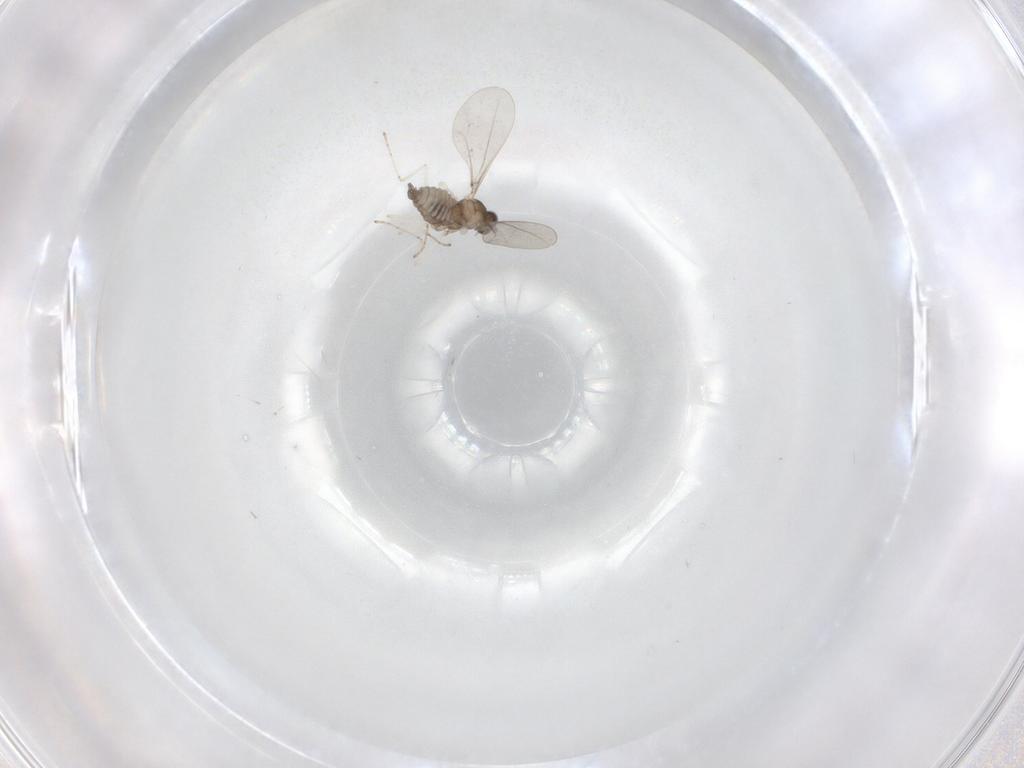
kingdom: Animalia
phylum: Arthropoda
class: Insecta
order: Diptera
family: Cecidomyiidae
